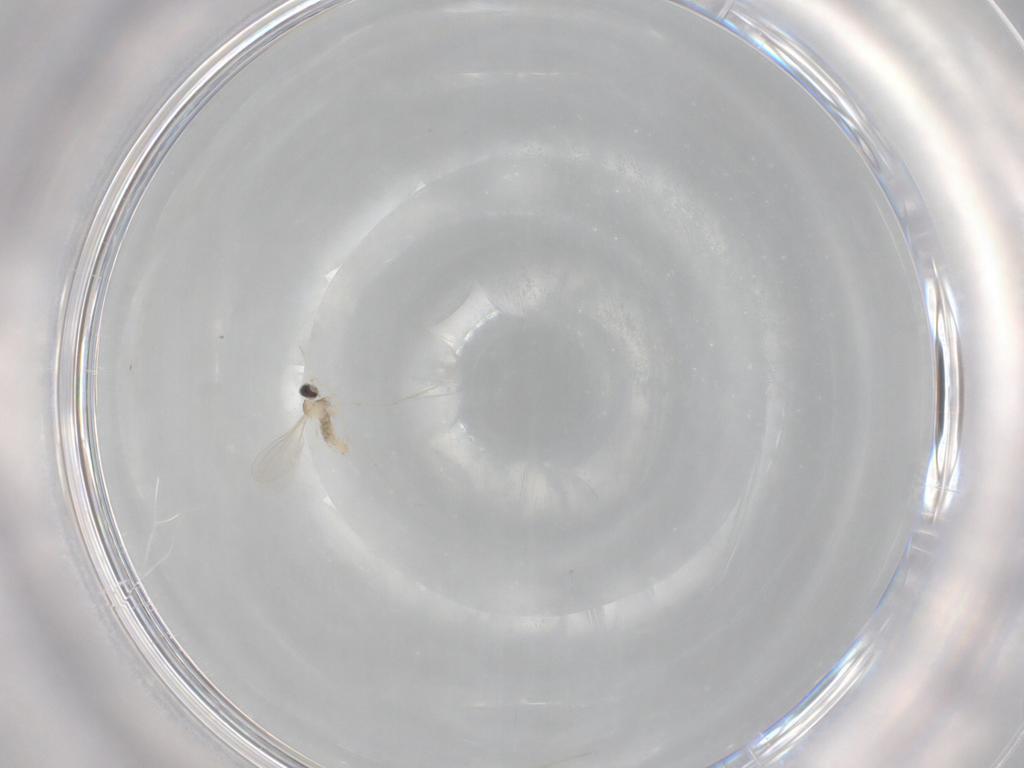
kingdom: Animalia
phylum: Arthropoda
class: Insecta
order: Diptera
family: Cecidomyiidae
